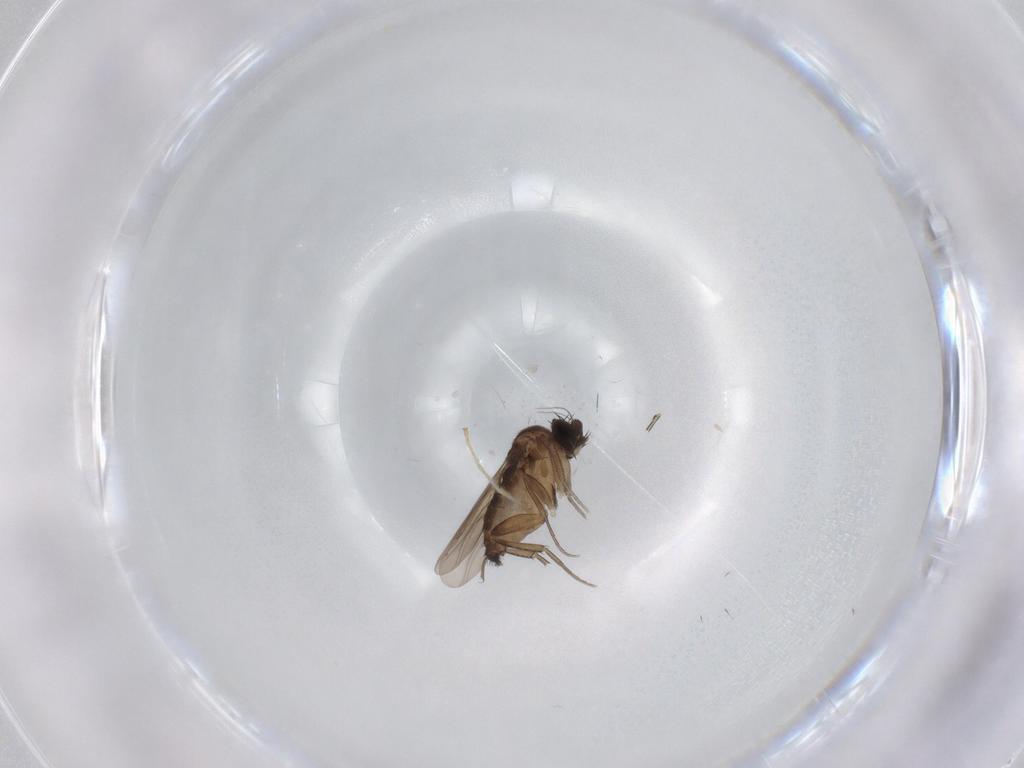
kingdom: Animalia
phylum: Arthropoda
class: Insecta
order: Diptera
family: Phoridae
